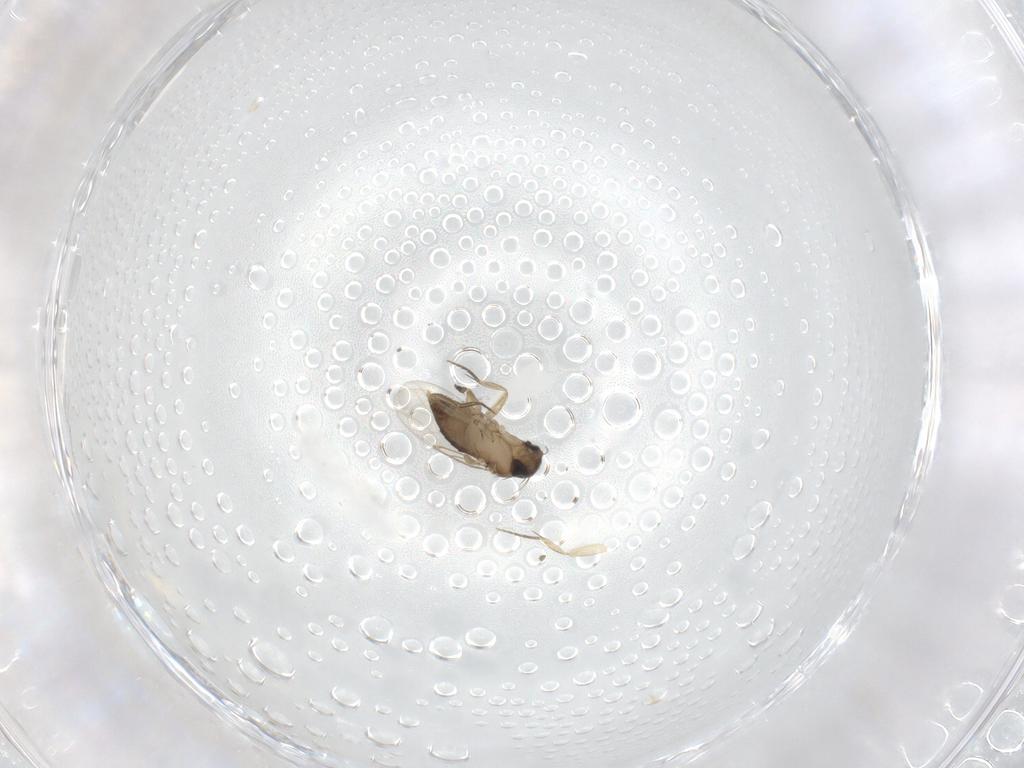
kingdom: Animalia
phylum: Arthropoda
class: Insecta
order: Diptera
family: Phoridae
